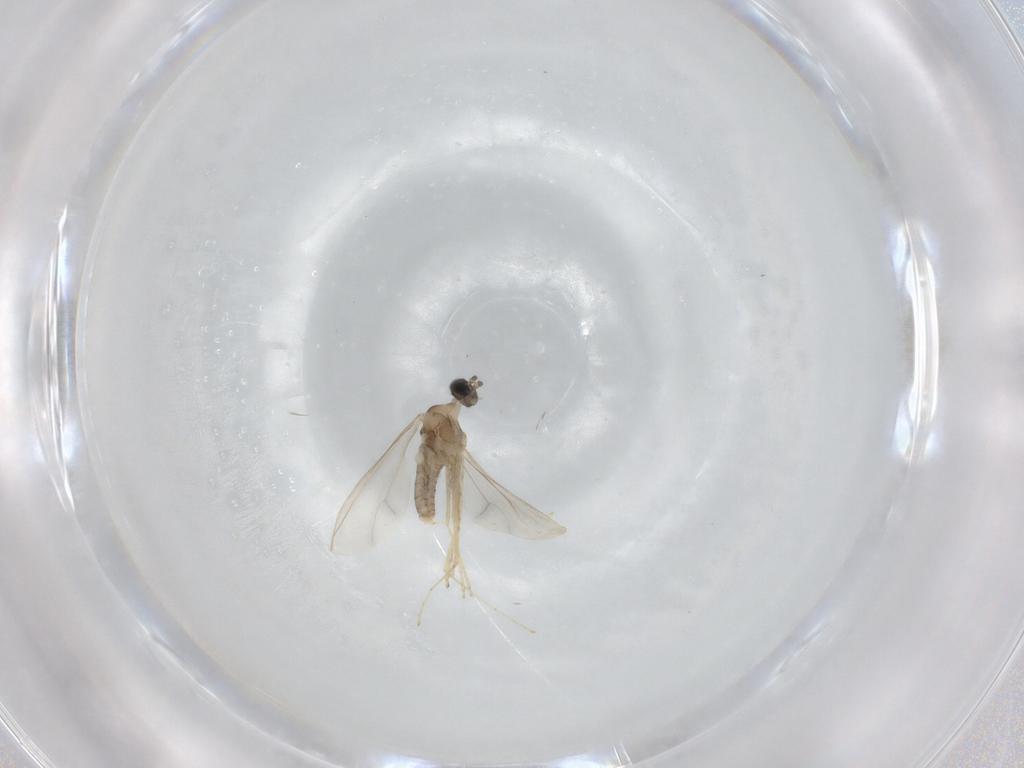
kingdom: Animalia
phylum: Arthropoda
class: Insecta
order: Diptera
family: Cecidomyiidae
